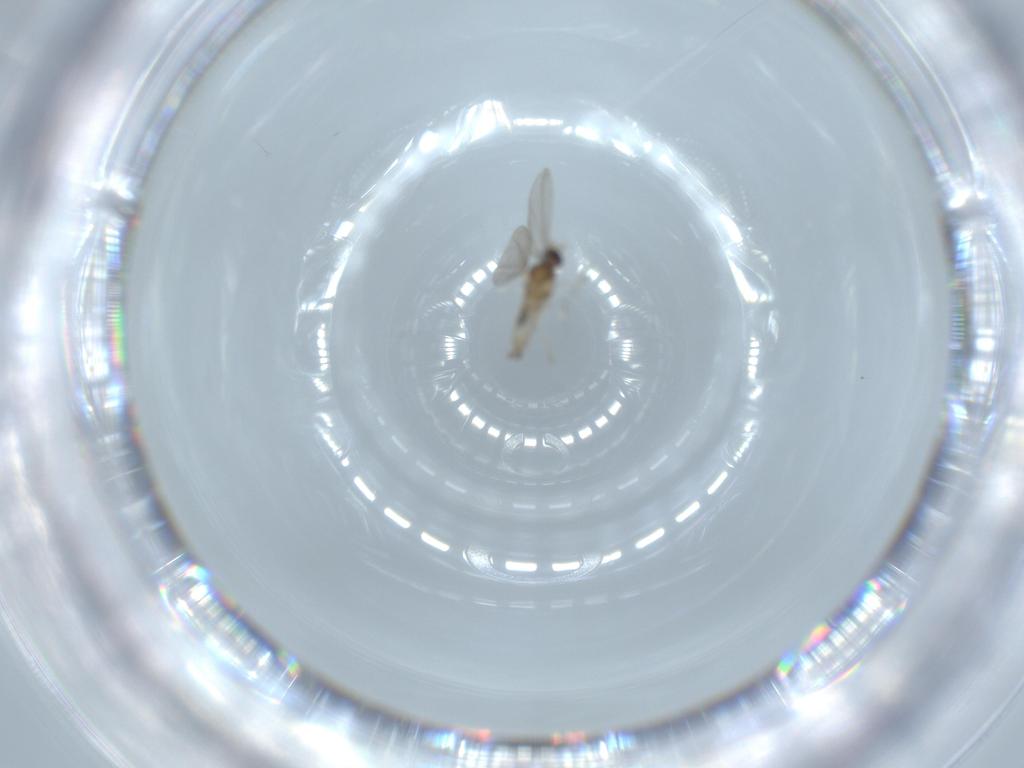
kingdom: Animalia
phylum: Arthropoda
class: Insecta
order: Diptera
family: Cecidomyiidae
